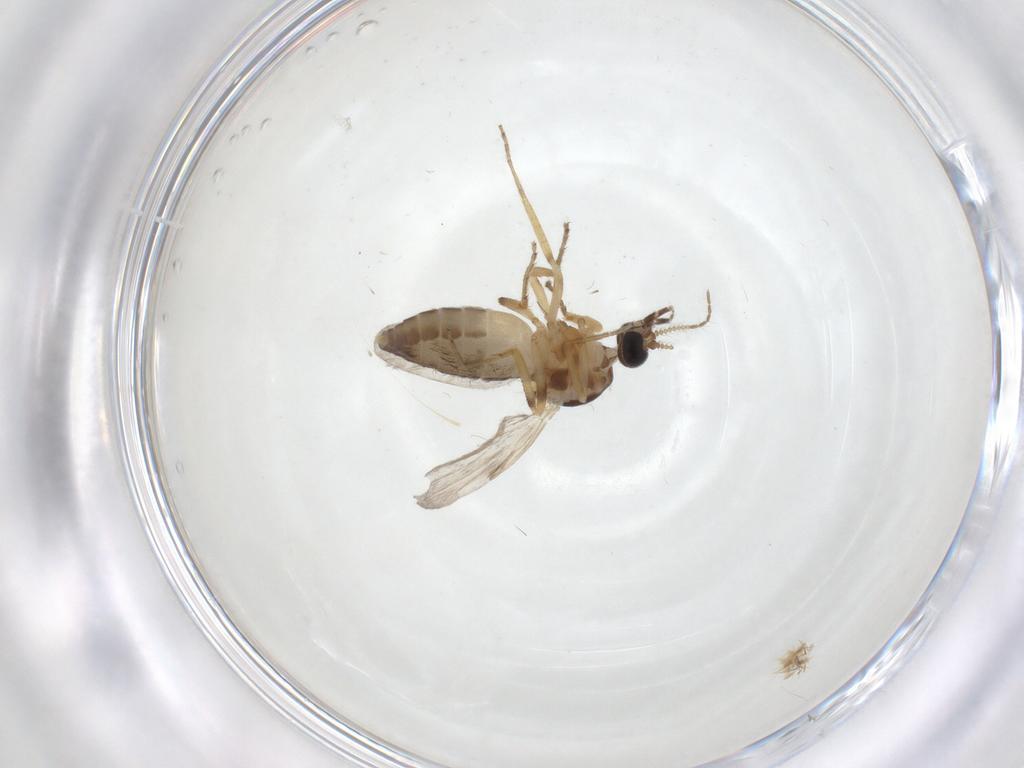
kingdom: Animalia
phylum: Arthropoda
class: Insecta
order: Diptera
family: Ceratopogonidae
